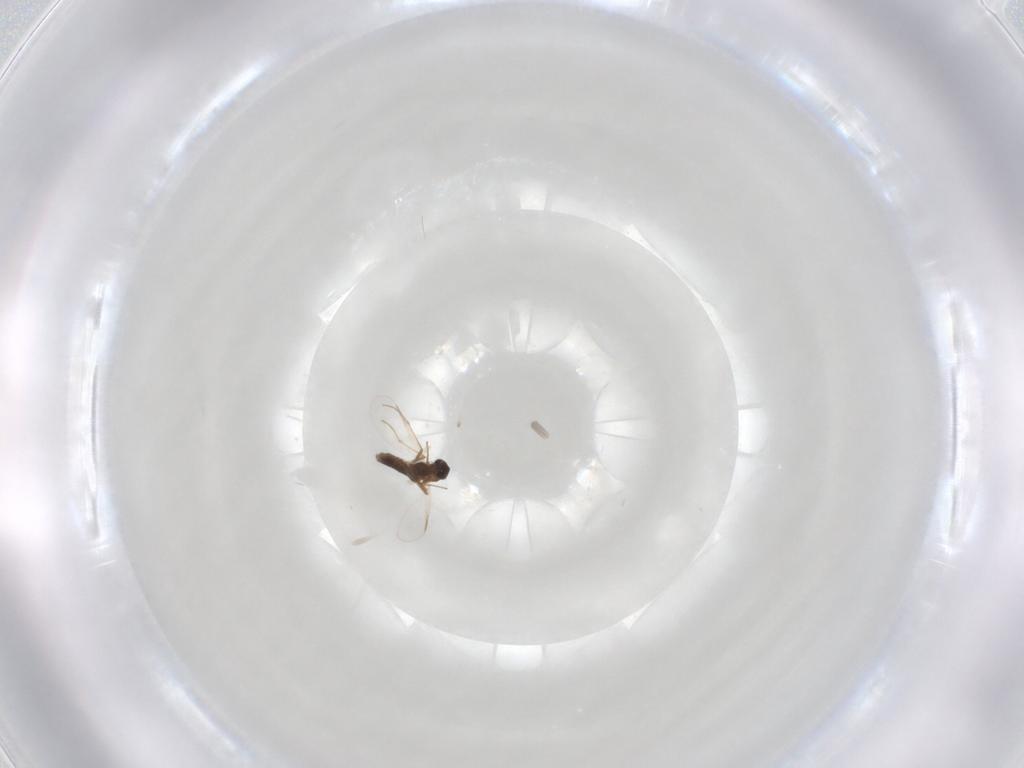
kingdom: Animalia
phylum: Arthropoda
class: Insecta
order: Diptera
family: Chironomidae
